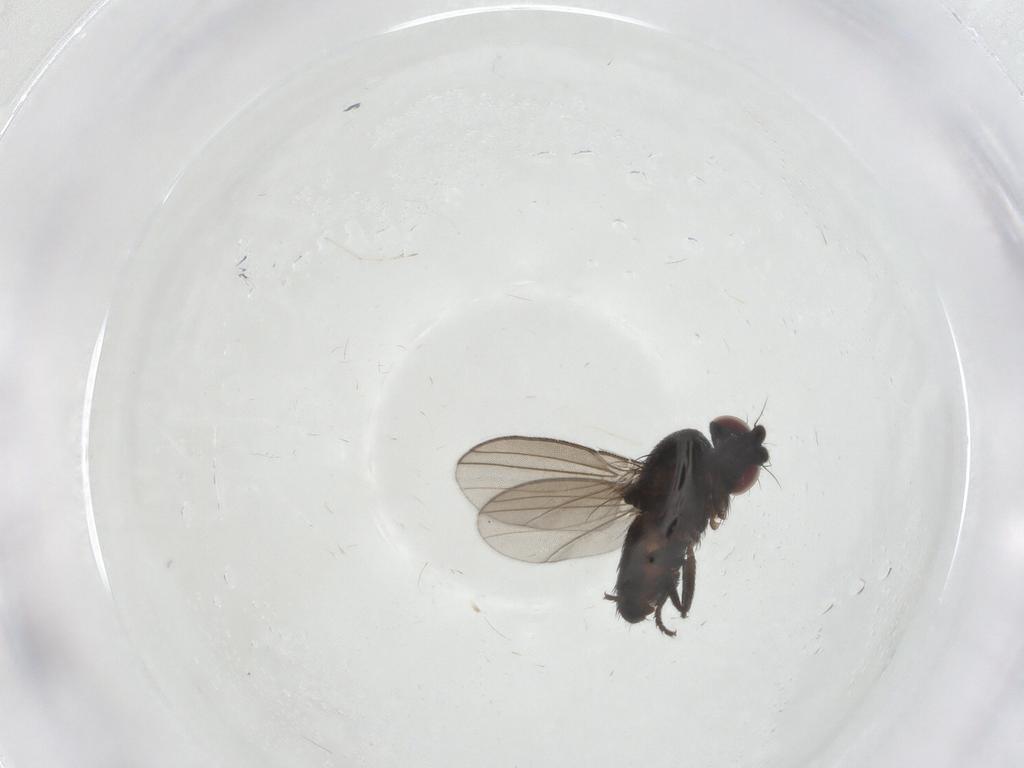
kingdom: Animalia
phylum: Arthropoda
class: Insecta
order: Diptera
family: Milichiidae
